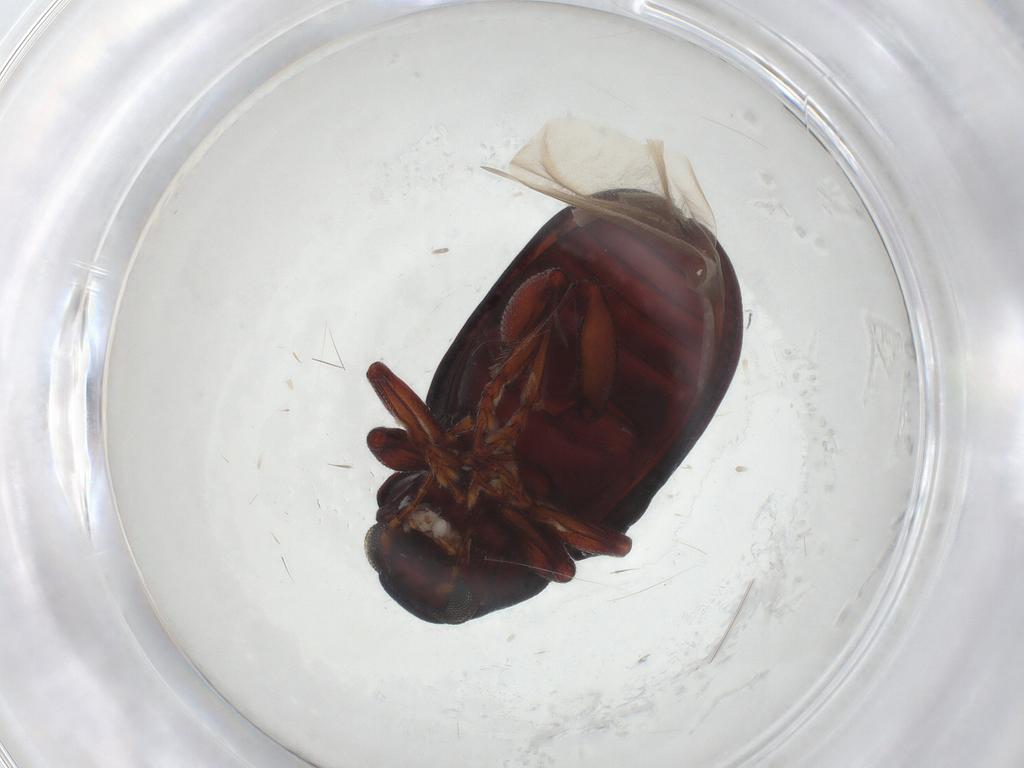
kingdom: Animalia
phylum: Arthropoda
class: Insecta
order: Coleoptera
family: Chrysomelidae
